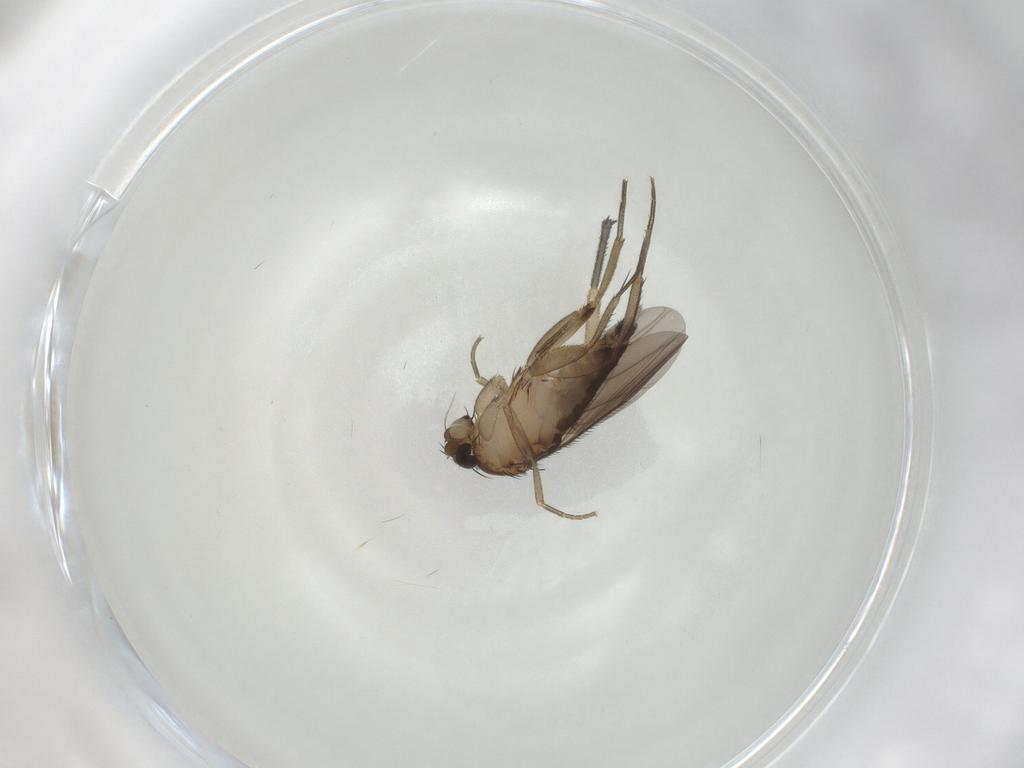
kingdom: Animalia
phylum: Arthropoda
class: Insecta
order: Diptera
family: Phoridae
